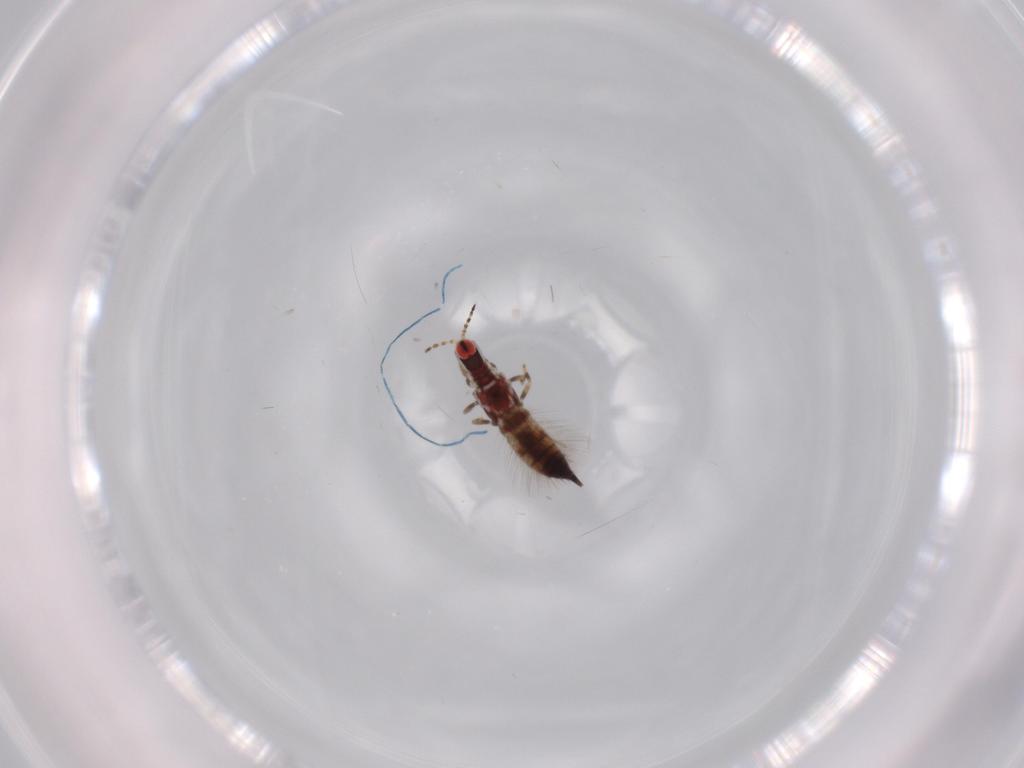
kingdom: Animalia
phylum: Arthropoda
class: Insecta
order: Thysanoptera
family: Phlaeothripidae
